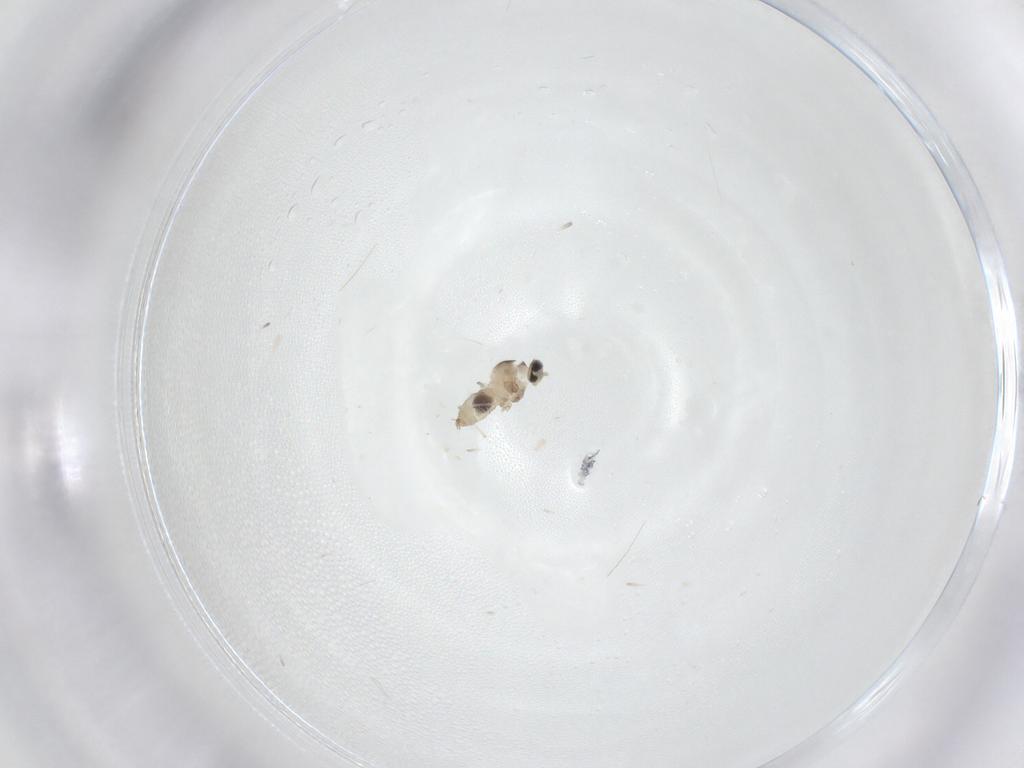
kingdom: Animalia
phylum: Arthropoda
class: Insecta
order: Diptera
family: Cecidomyiidae
